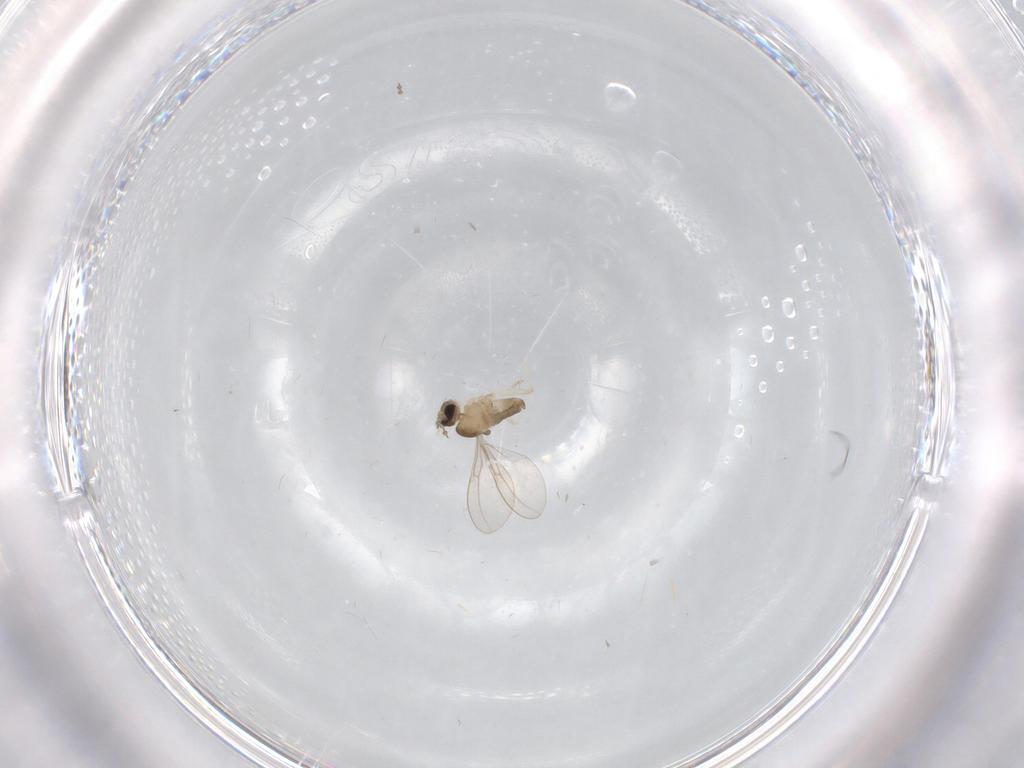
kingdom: Animalia
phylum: Arthropoda
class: Insecta
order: Diptera
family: Cecidomyiidae
